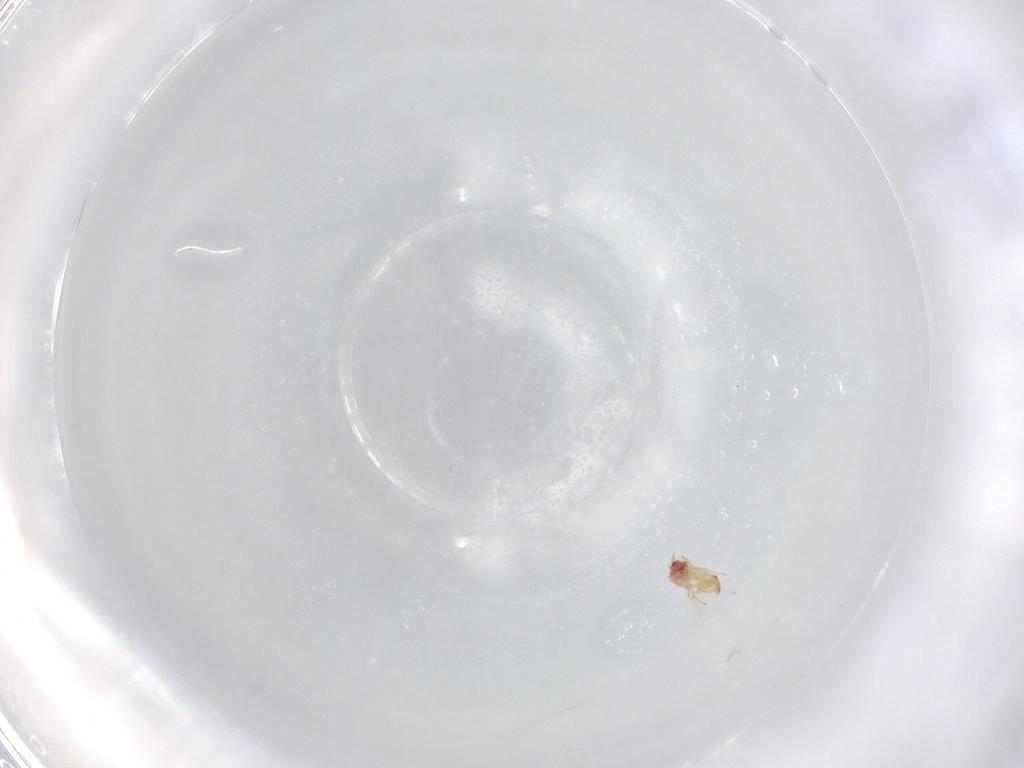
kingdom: Animalia
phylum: Arthropoda
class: Insecta
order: Hymenoptera
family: Pteromalidae
